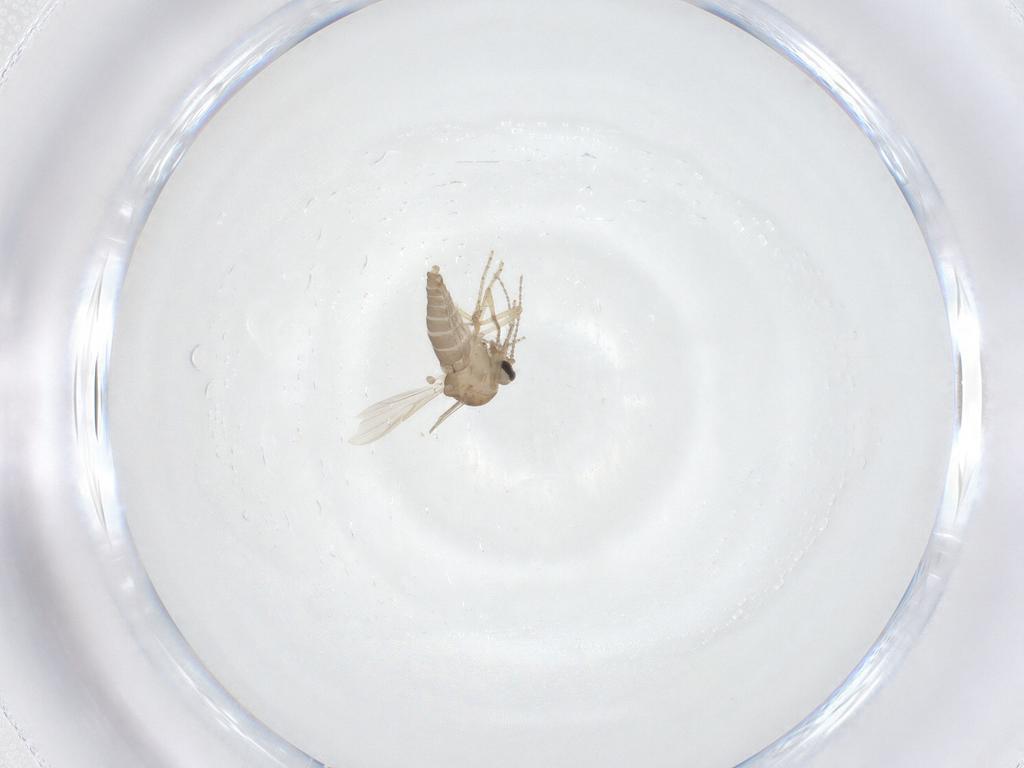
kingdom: Animalia
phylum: Arthropoda
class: Insecta
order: Diptera
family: Ceratopogonidae
